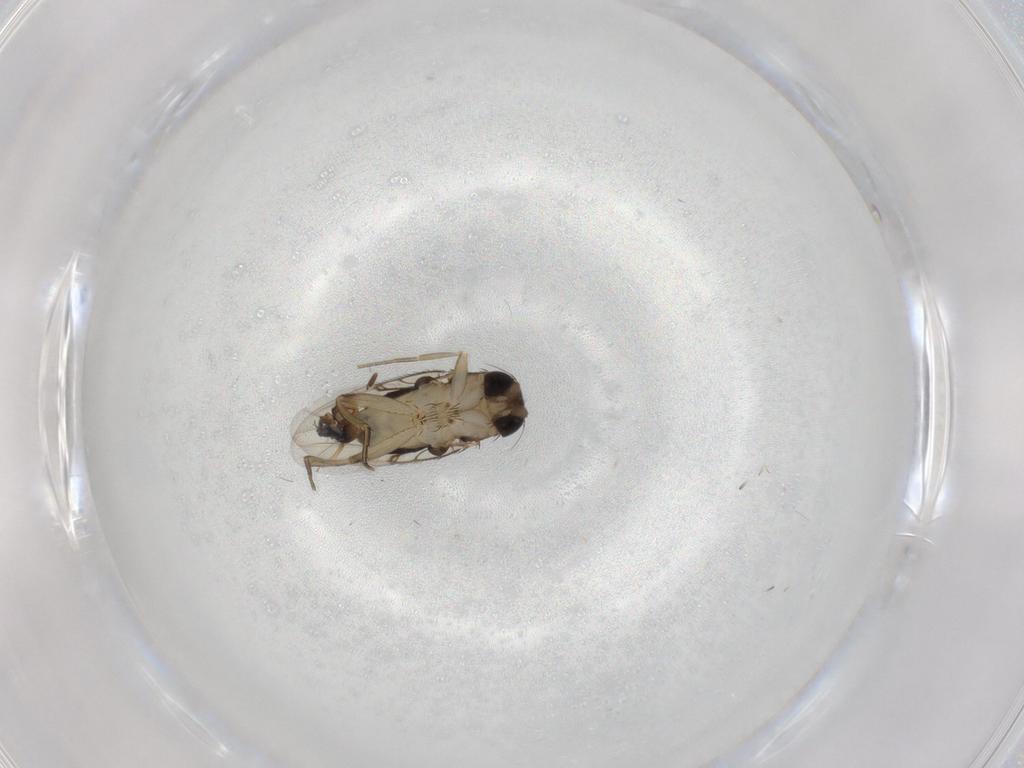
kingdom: Animalia
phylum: Arthropoda
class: Insecta
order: Diptera
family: Phoridae
